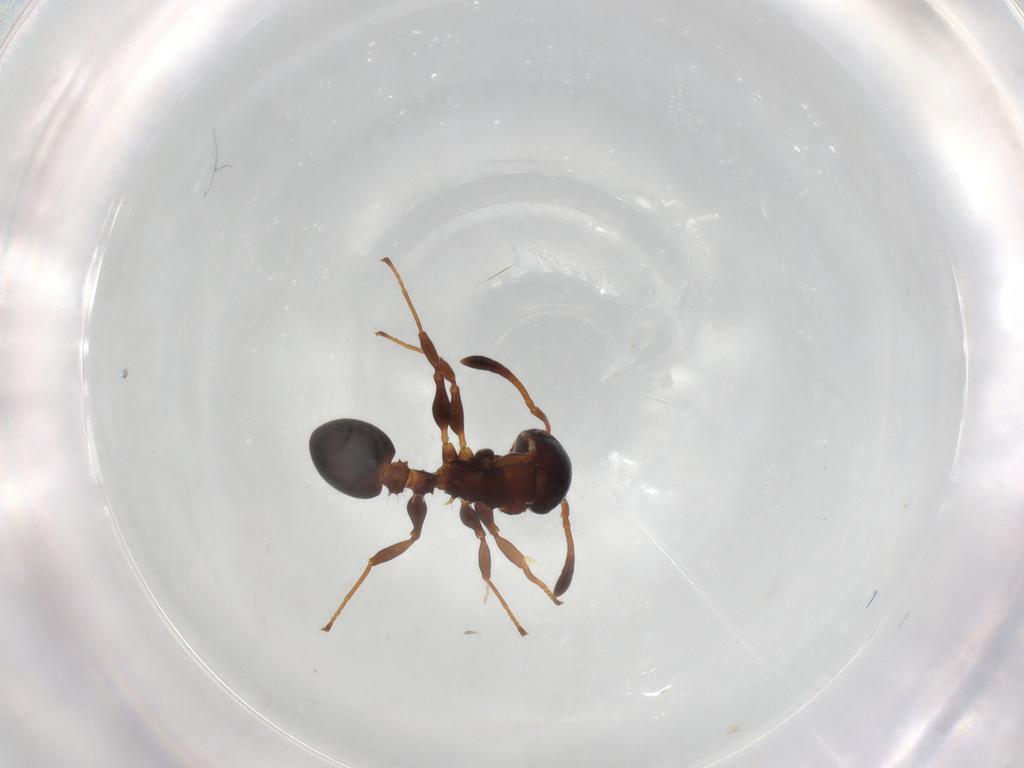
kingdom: Animalia
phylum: Arthropoda
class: Insecta
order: Hymenoptera
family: Formicidae
